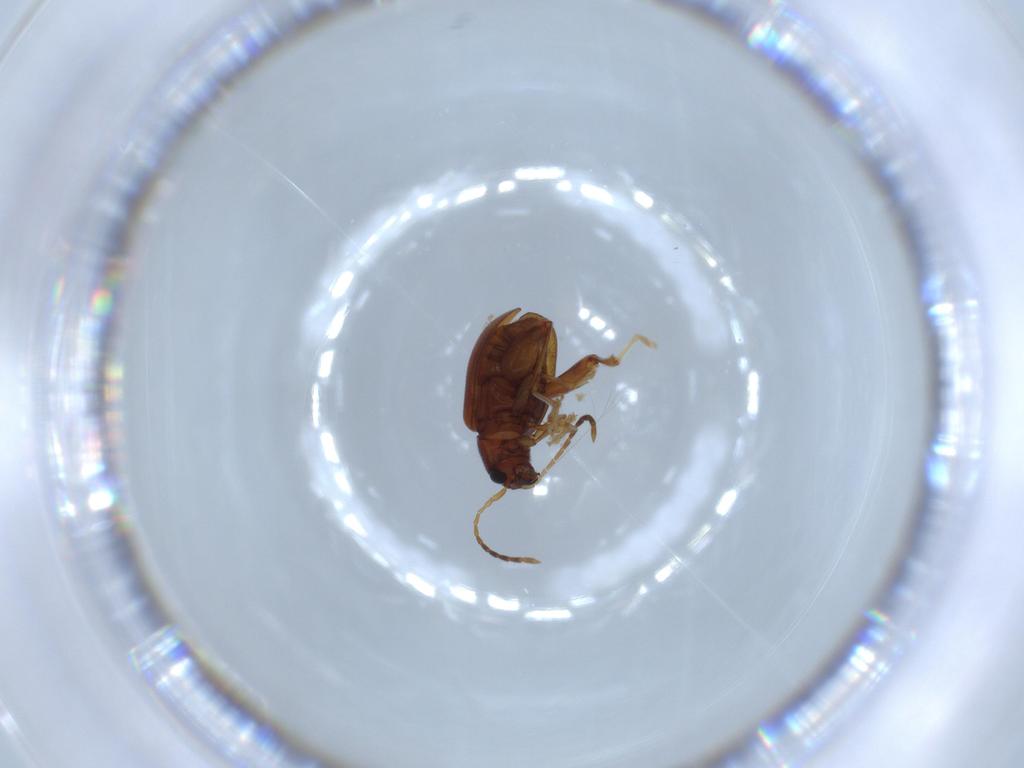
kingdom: Animalia
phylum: Arthropoda
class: Insecta
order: Coleoptera
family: Chrysomelidae
